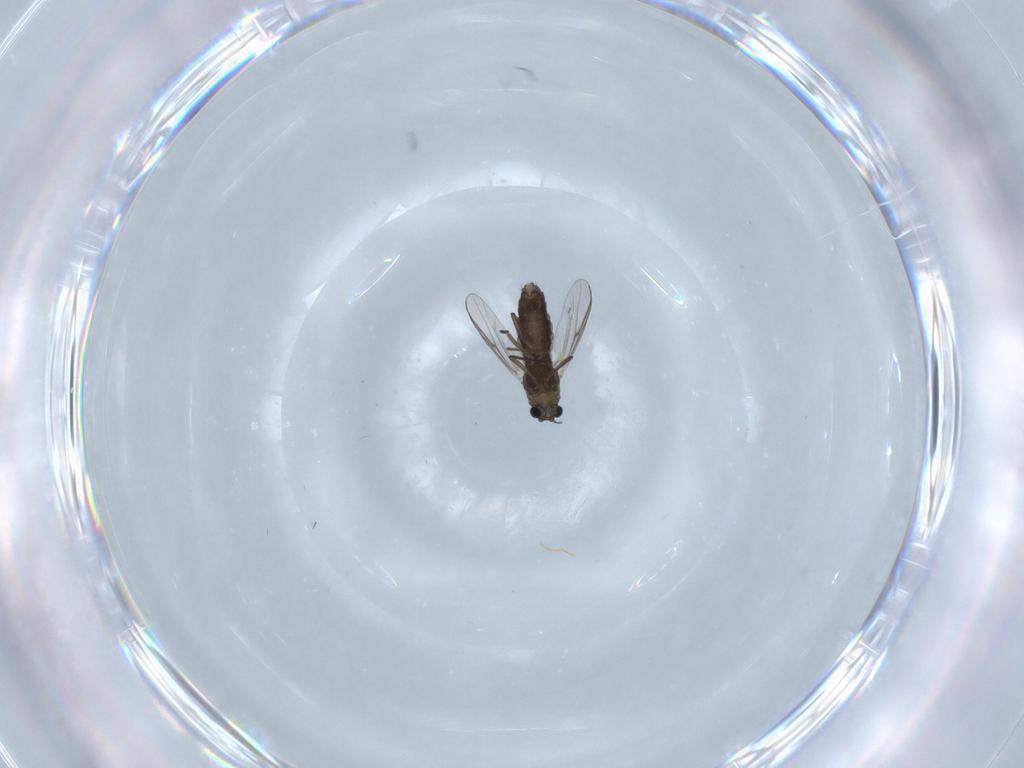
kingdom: Animalia
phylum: Arthropoda
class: Insecta
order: Diptera
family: Chironomidae
